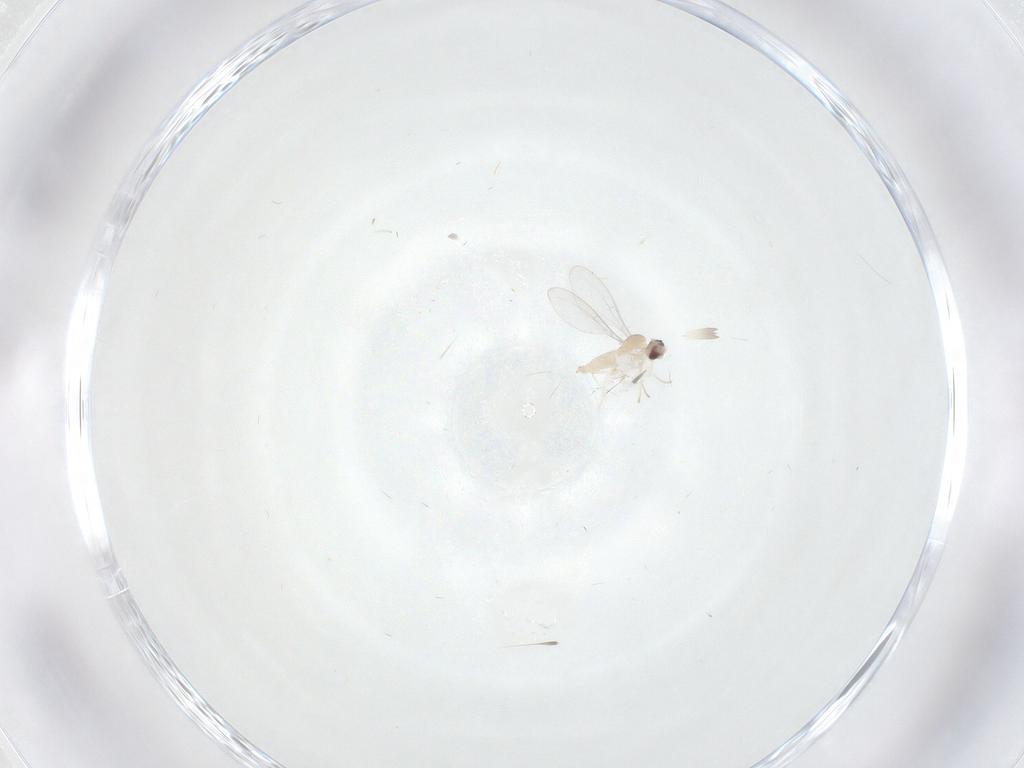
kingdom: Animalia
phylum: Arthropoda
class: Insecta
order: Diptera
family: Cecidomyiidae
